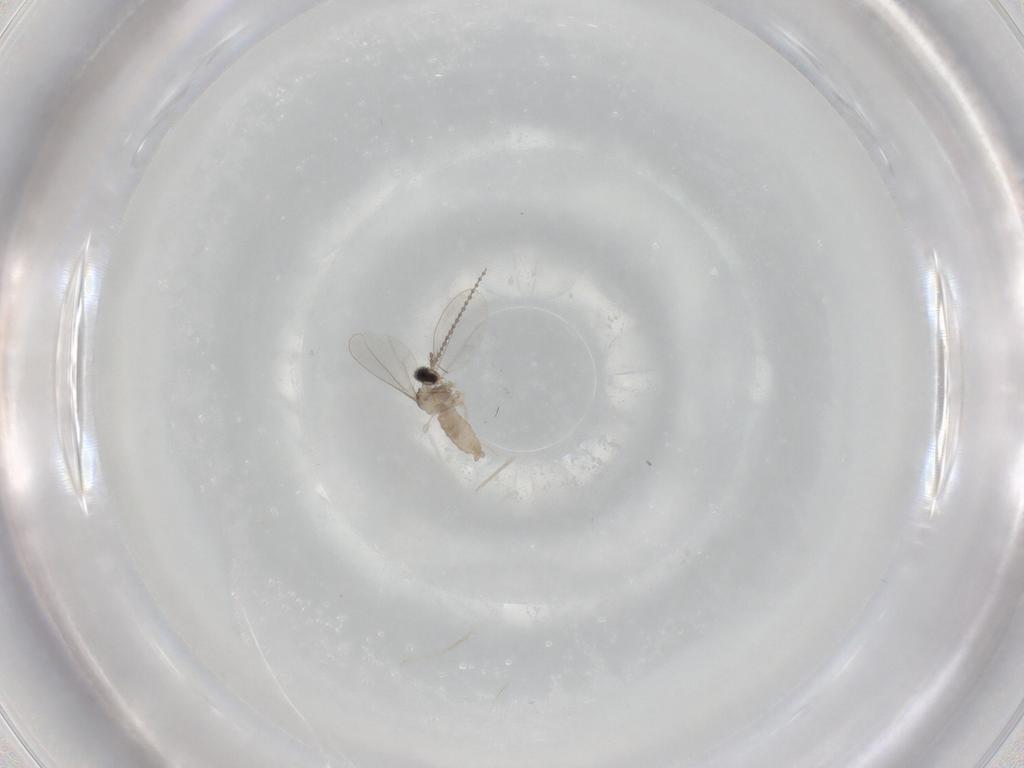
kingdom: Animalia
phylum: Arthropoda
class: Insecta
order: Diptera
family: Cecidomyiidae
